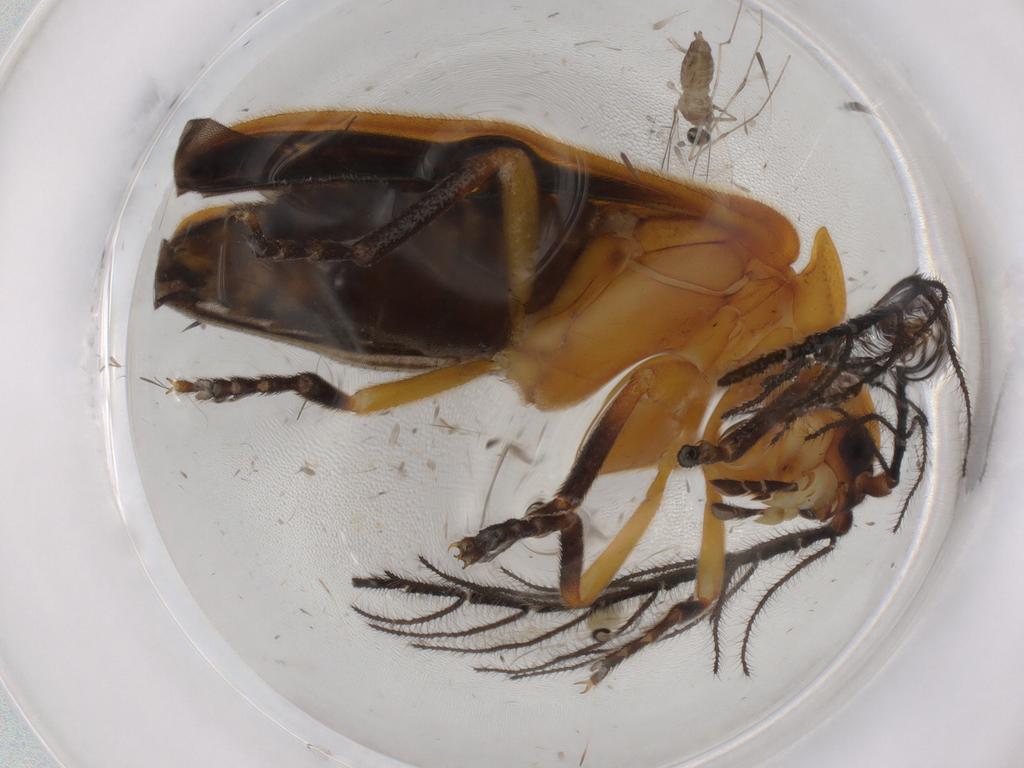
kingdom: Animalia
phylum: Arthropoda
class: Insecta
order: Diptera
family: Cecidomyiidae
